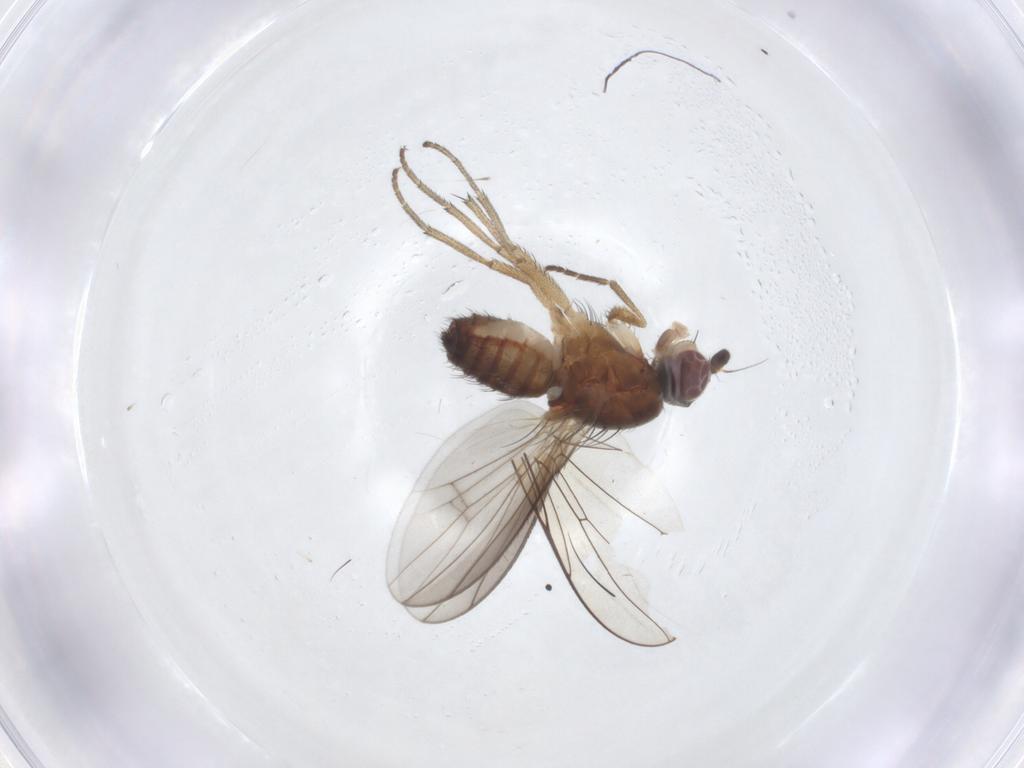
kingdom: Animalia
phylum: Arthropoda
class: Insecta
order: Diptera
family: Heleomyzidae
